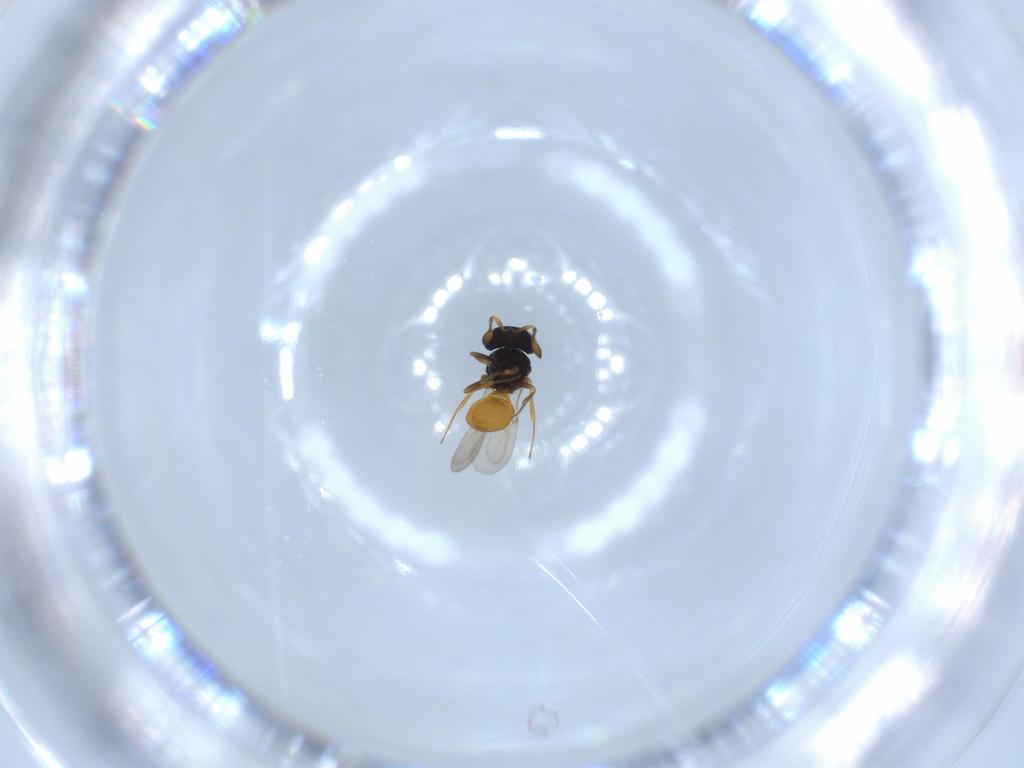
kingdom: Animalia
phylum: Arthropoda
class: Insecta
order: Hymenoptera
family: Scelionidae
